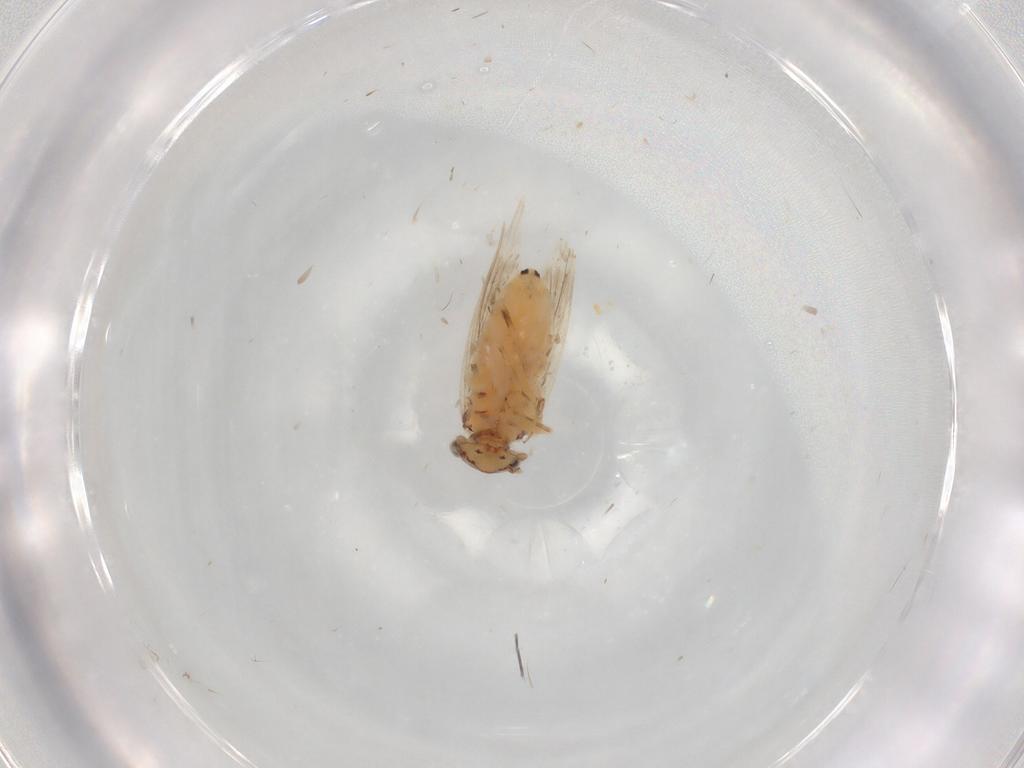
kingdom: Animalia
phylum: Arthropoda
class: Insecta
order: Psocodea
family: Lepidopsocidae
